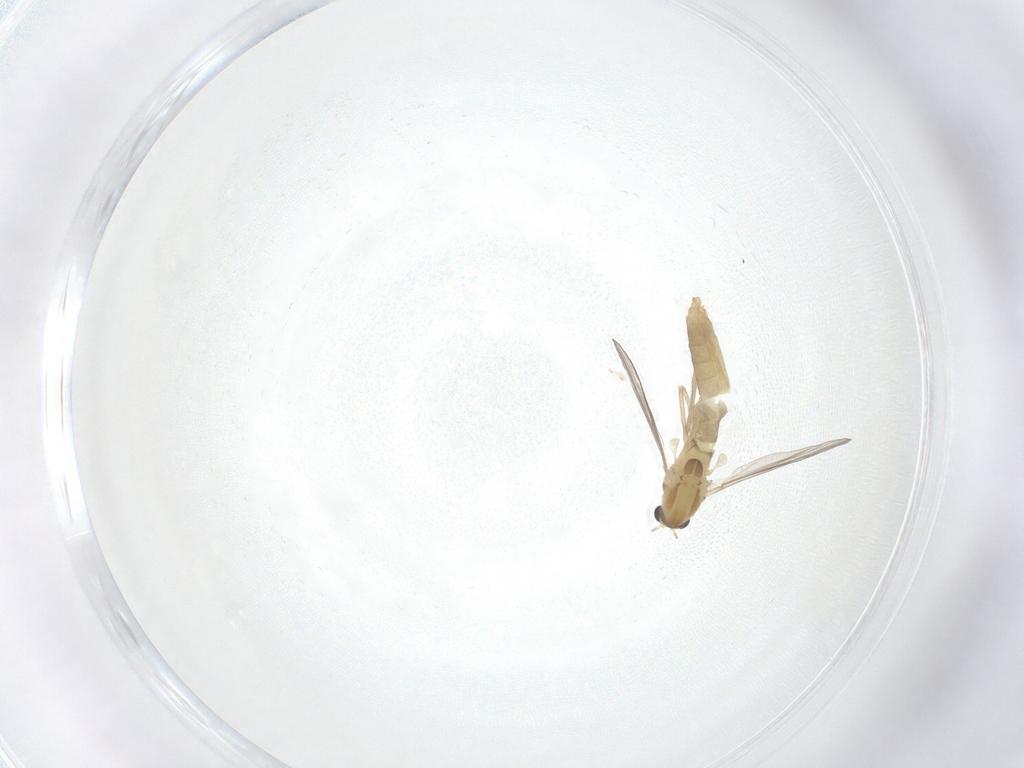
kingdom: Animalia
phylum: Arthropoda
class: Insecta
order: Diptera
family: Chironomidae
